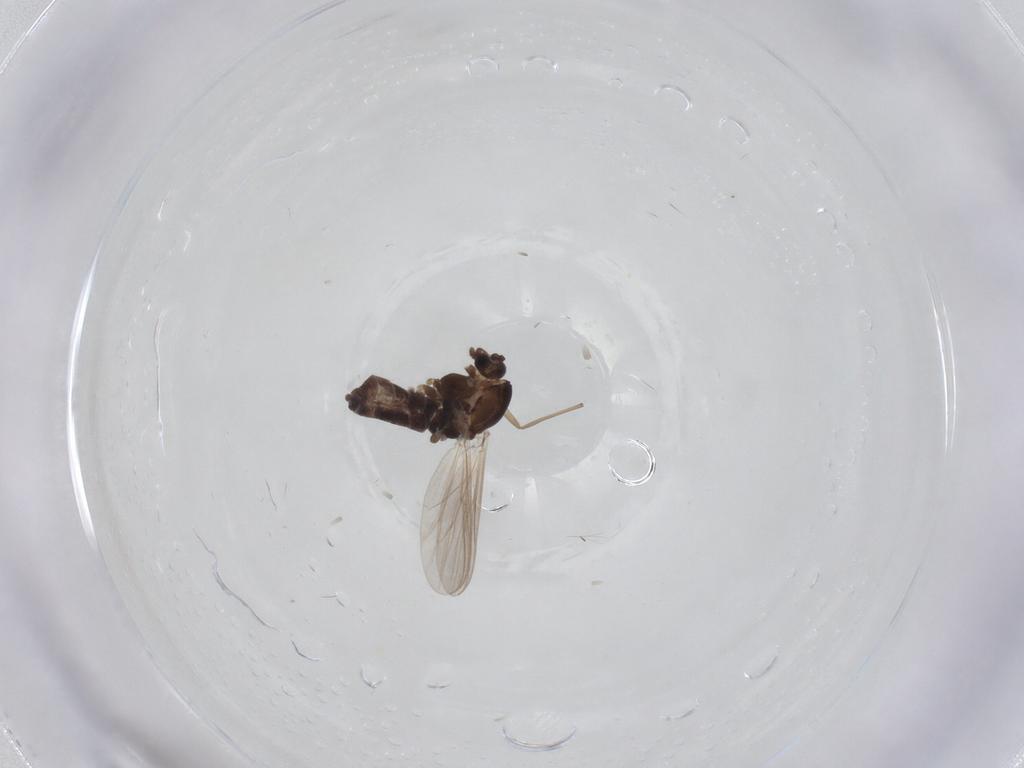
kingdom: Animalia
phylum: Arthropoda
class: Insecta
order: Diptera
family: Chironomidae
